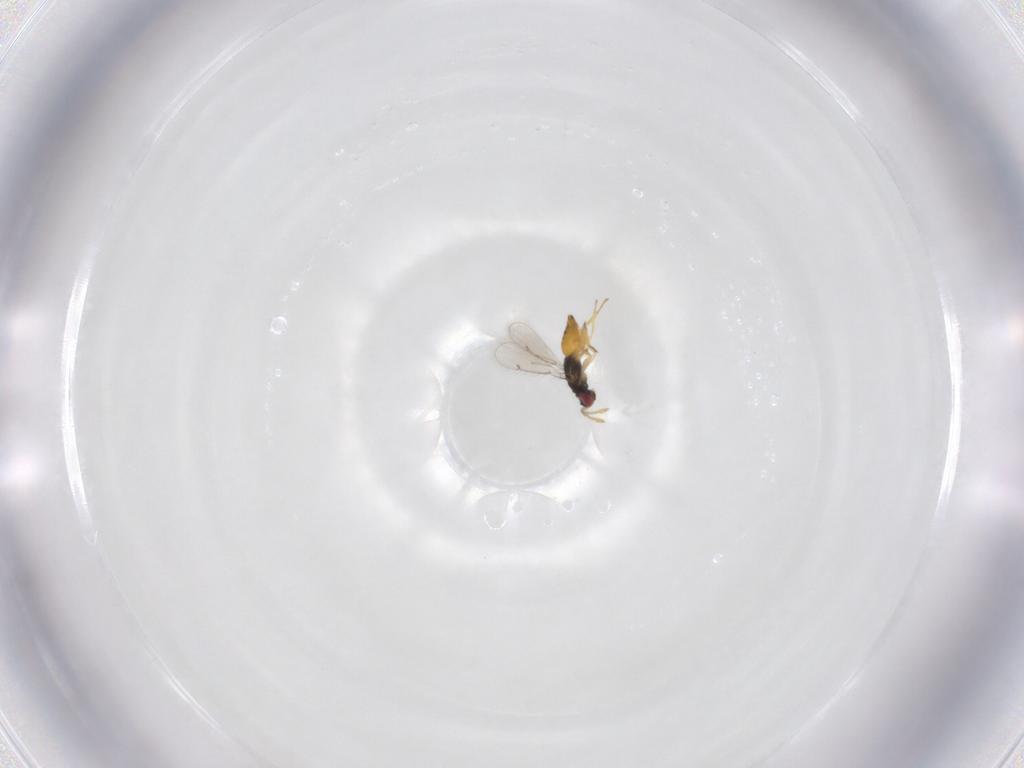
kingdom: Animalia
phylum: Arthropoda
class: Insecta
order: Hymenoptera
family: Eulophidae
